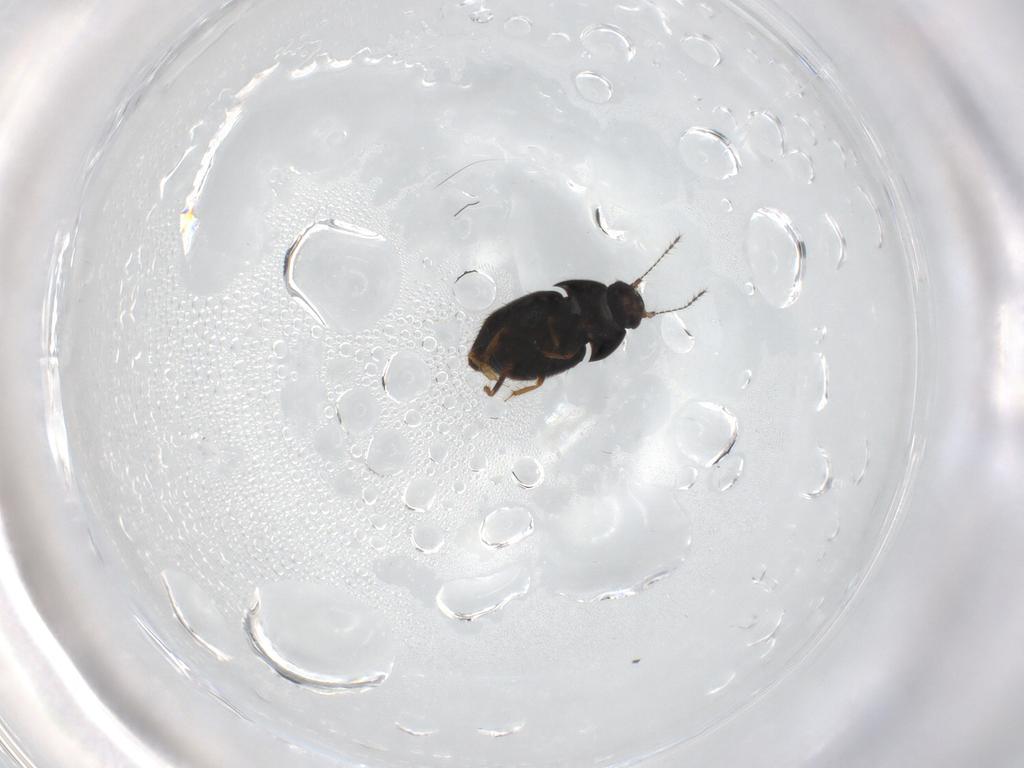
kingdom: Animalia
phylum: Arthropoda
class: Insecta
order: Coleoptera
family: Ptiliidae
